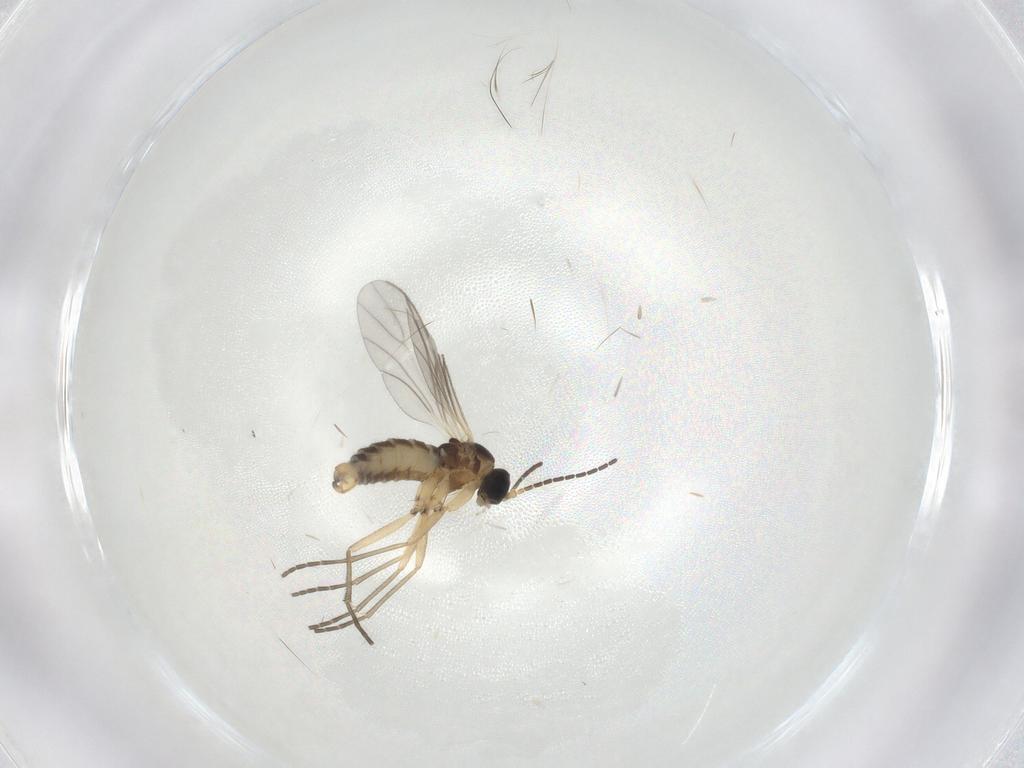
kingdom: Animalia
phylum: Arthropoda
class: Insecta
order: Diptera
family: Sciaridae
